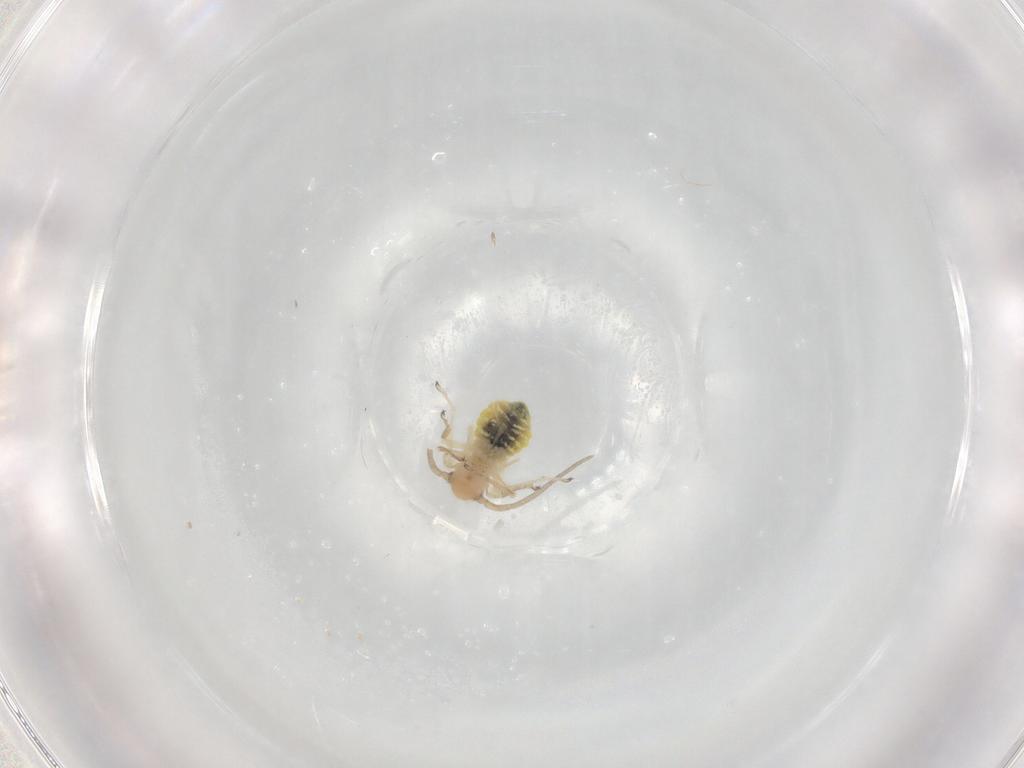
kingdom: Animalia
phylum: Arthropoda
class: Insecta
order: Psocodea
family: Caeciliusidae
